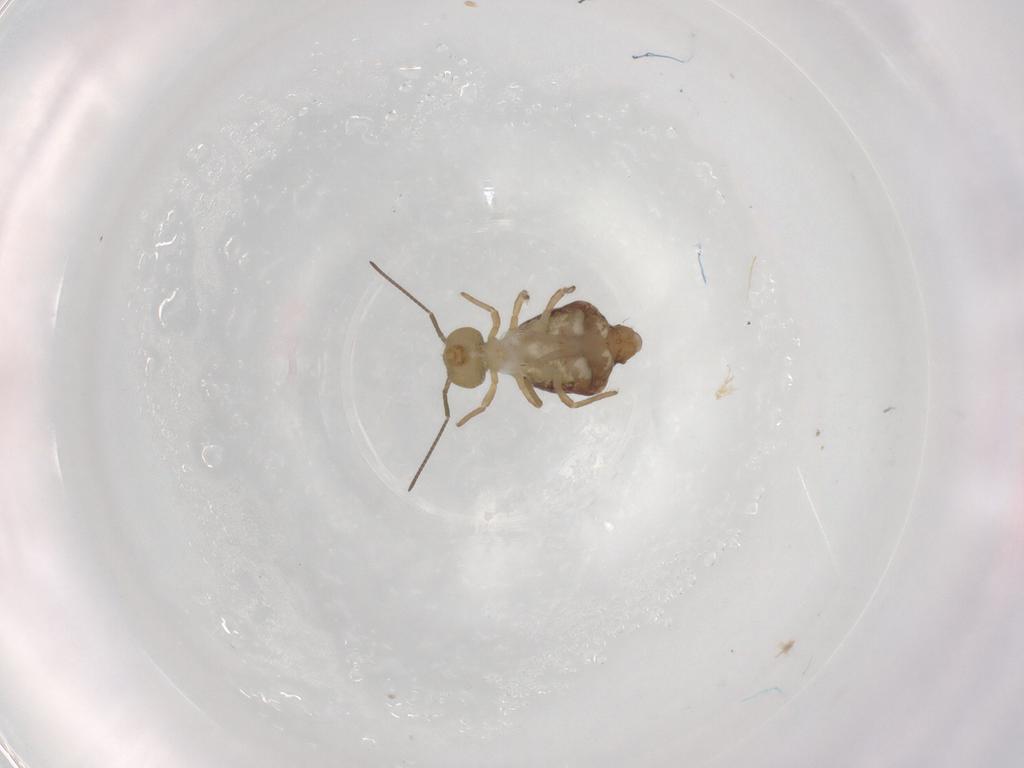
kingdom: Animalia
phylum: Arthropoda
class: Collembola
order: Symphypleona
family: Sminthuridae
